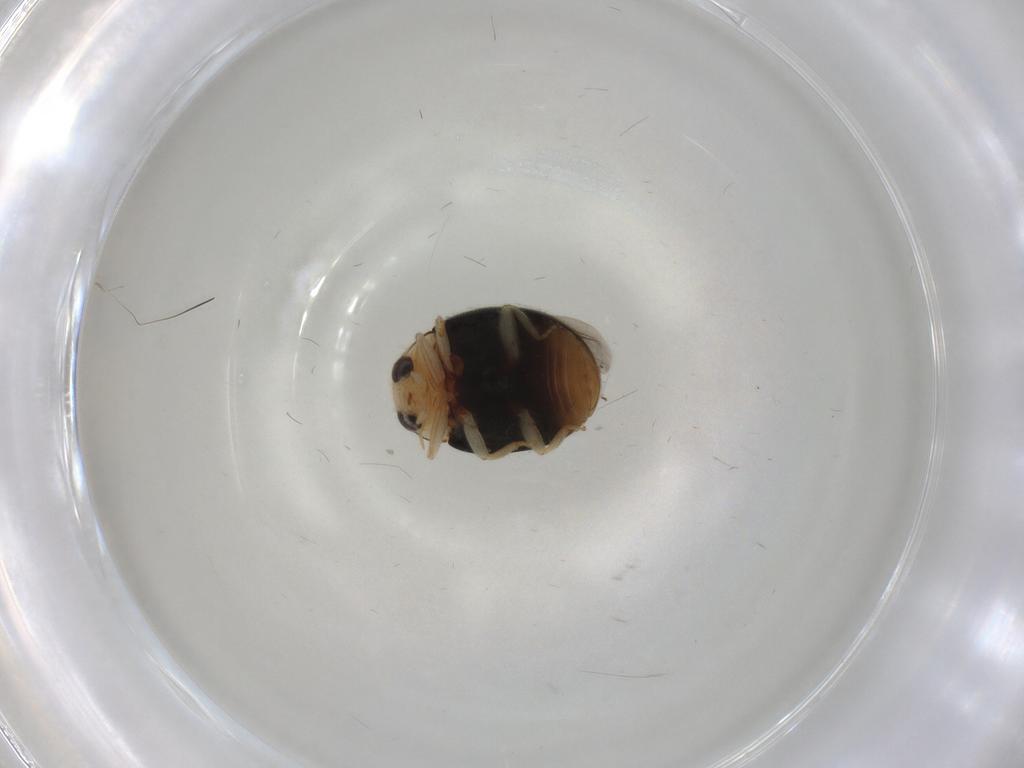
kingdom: Animalia
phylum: Arthropoda
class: Insecta
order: Coleoptera
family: Coccinellidae
